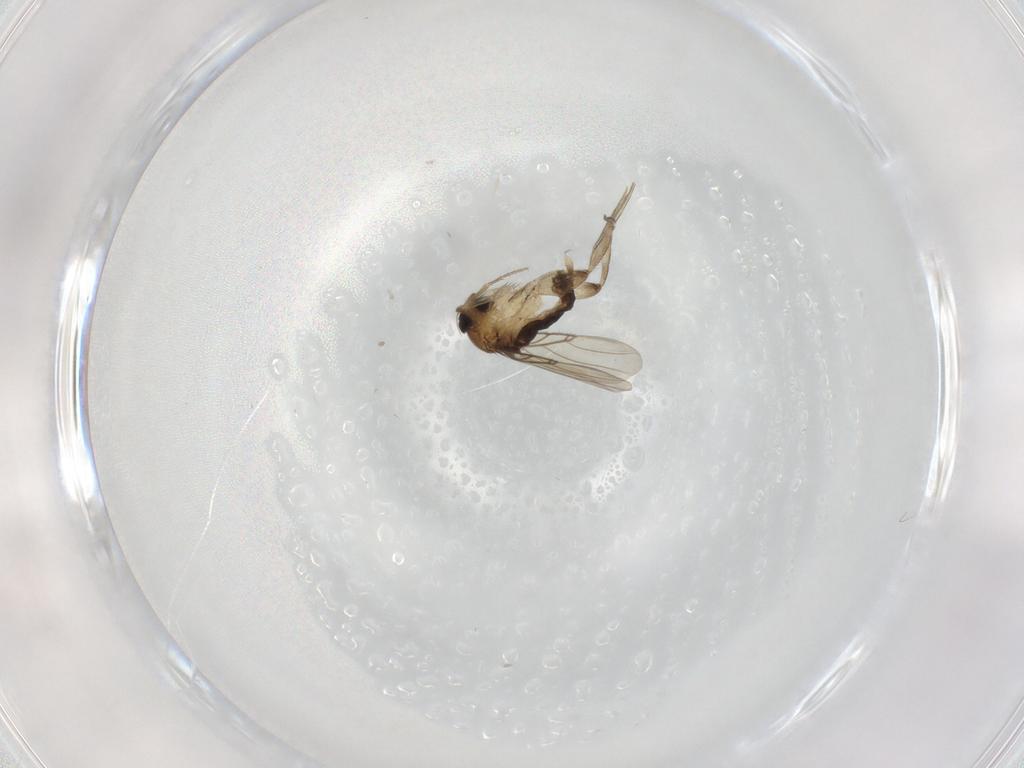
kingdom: Animalia
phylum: Arthropoda
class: Insecta
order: Diptera
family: Phoridae
